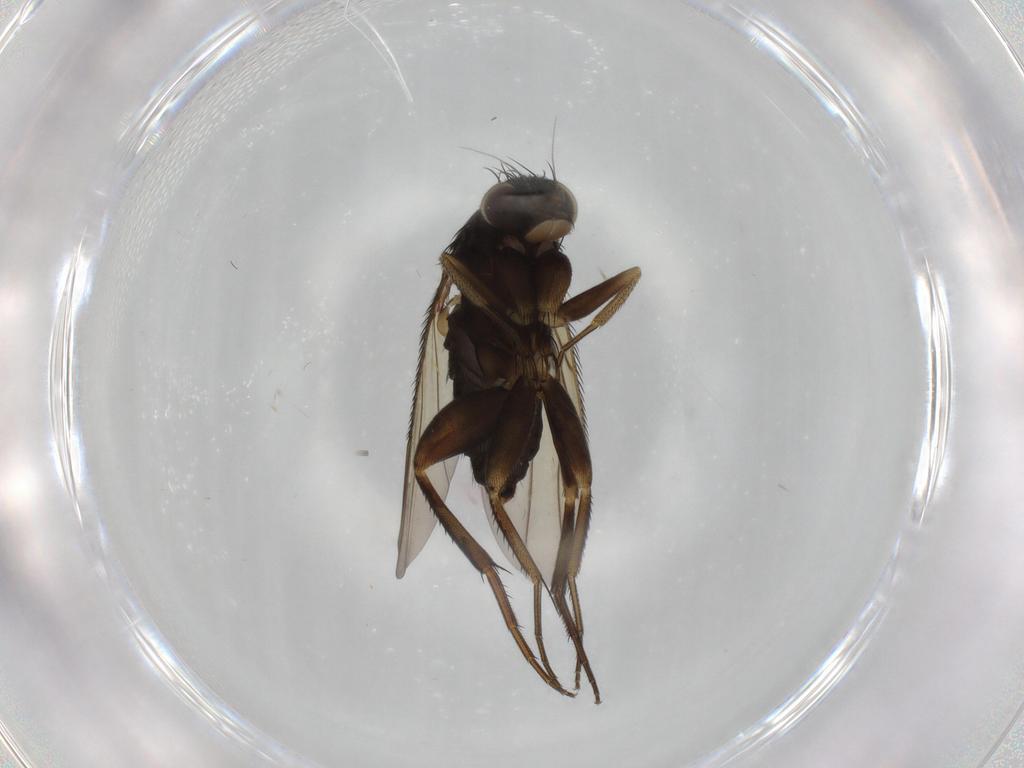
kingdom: Animalia
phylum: Arthropoda
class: Insecta
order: Diptera
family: Phoridae
